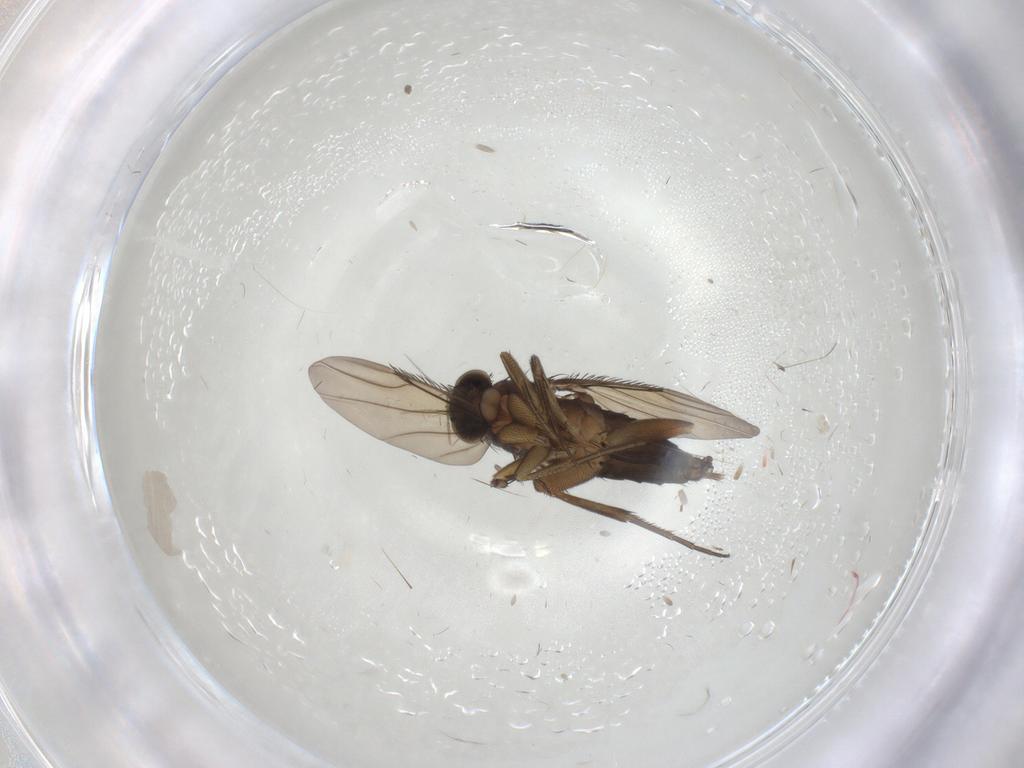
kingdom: Animalia
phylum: Arthropoda
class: Insecta
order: Diptera
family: Phoridae
